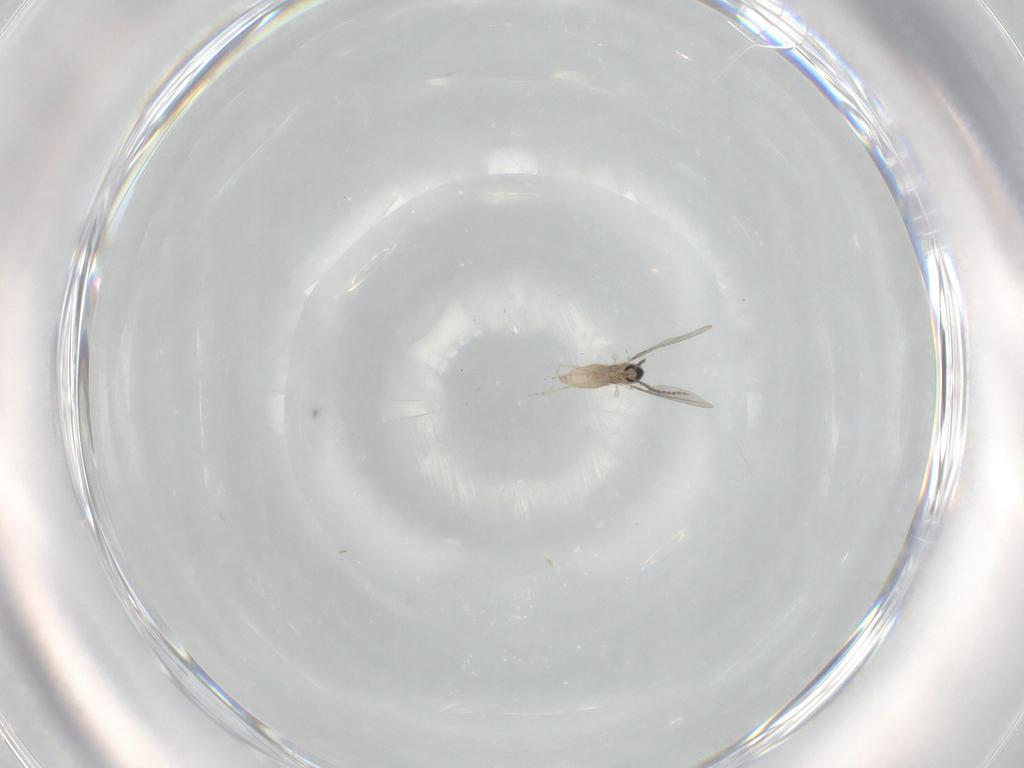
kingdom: Animalia
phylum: Arthropoda
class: Insecta
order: Diptera
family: Cecidomyiidae
